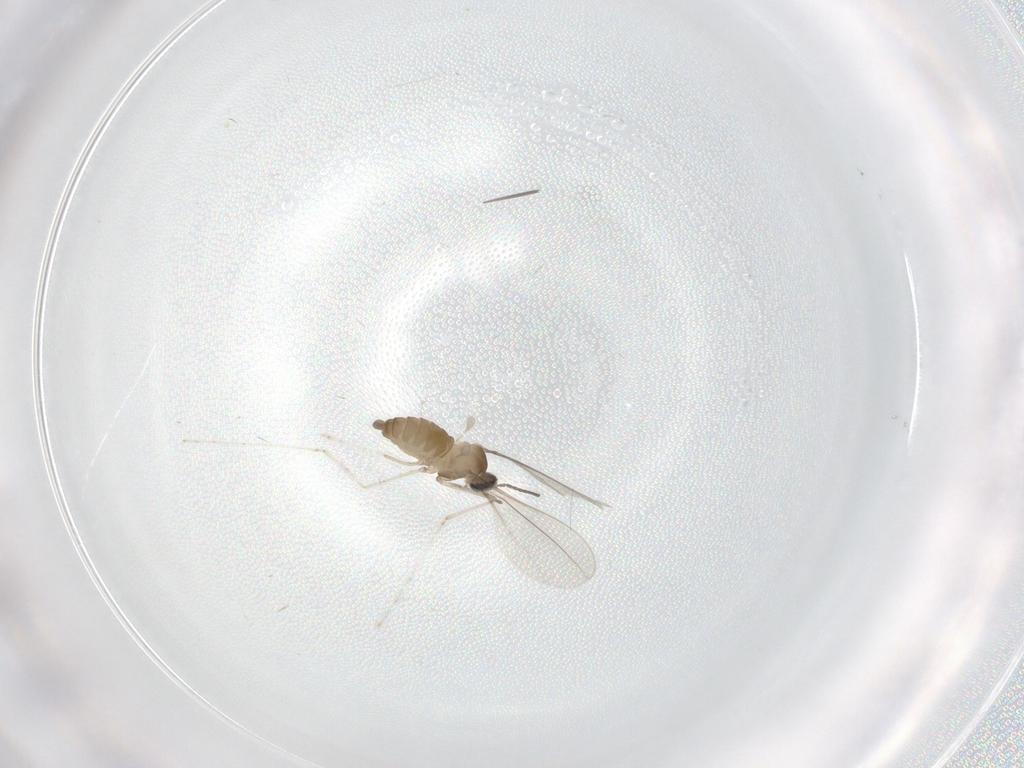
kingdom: Animalia
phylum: Arthropoda
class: Insecta
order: Diptera
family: Cecidomyiidae
